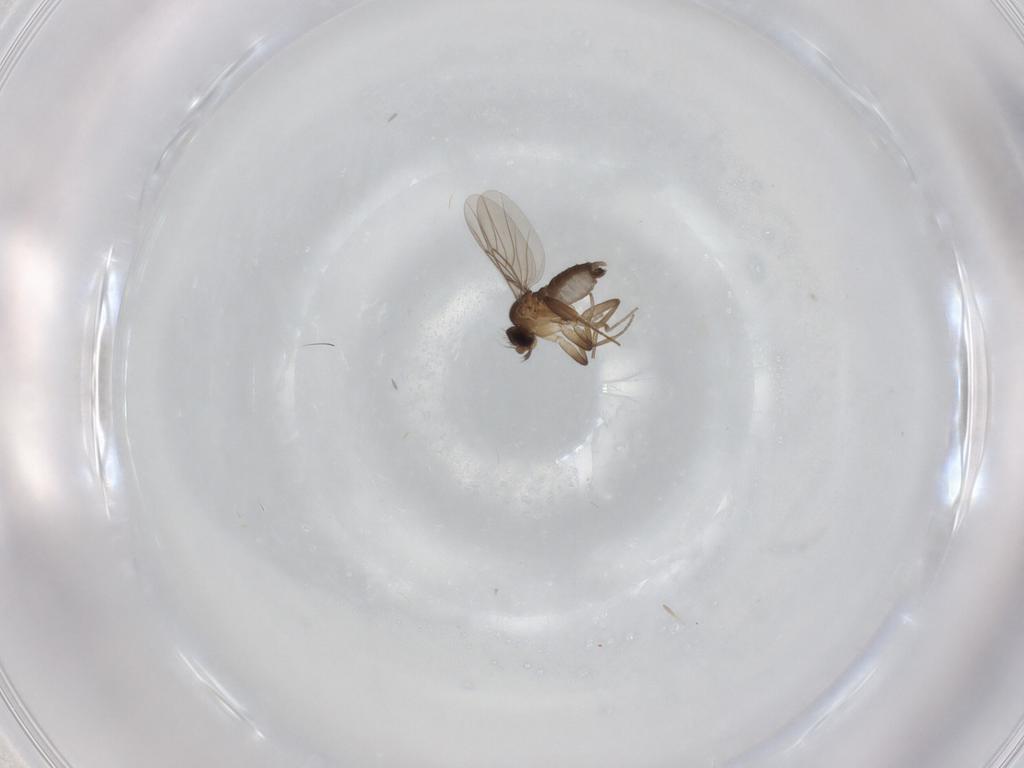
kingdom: Animalia
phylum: Arthropoda
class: Insecta
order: Diptera
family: Phoridae
